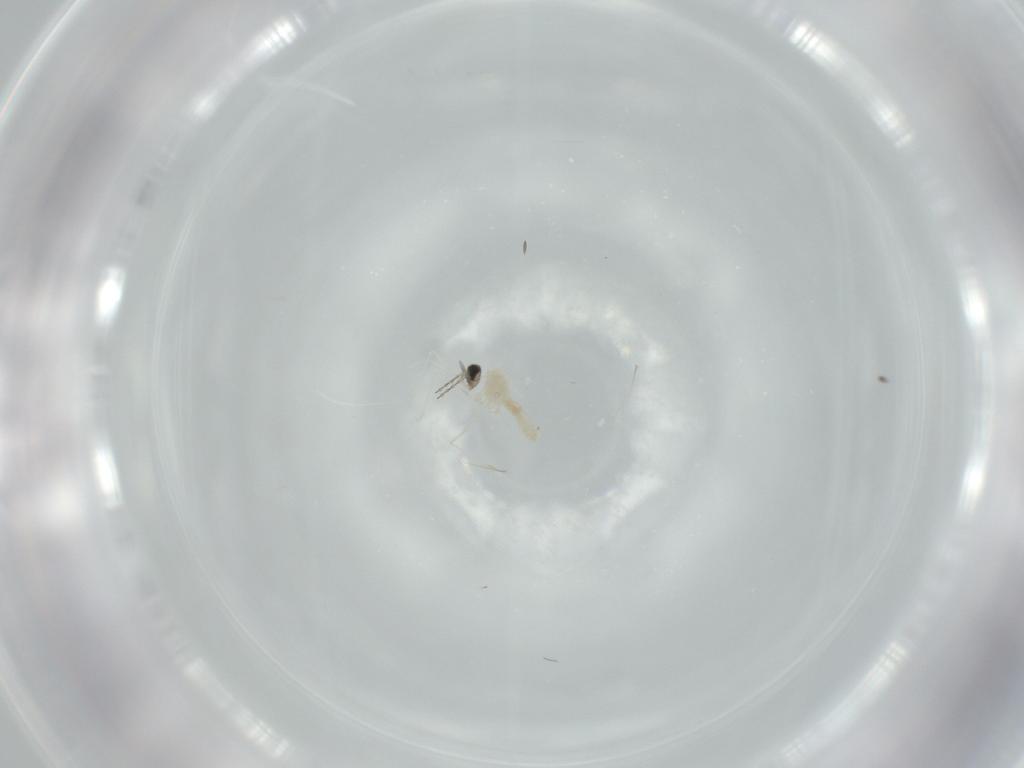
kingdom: Animalia
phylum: Arthropoda
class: Insecta
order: Diptera
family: Cecidomyiidae
